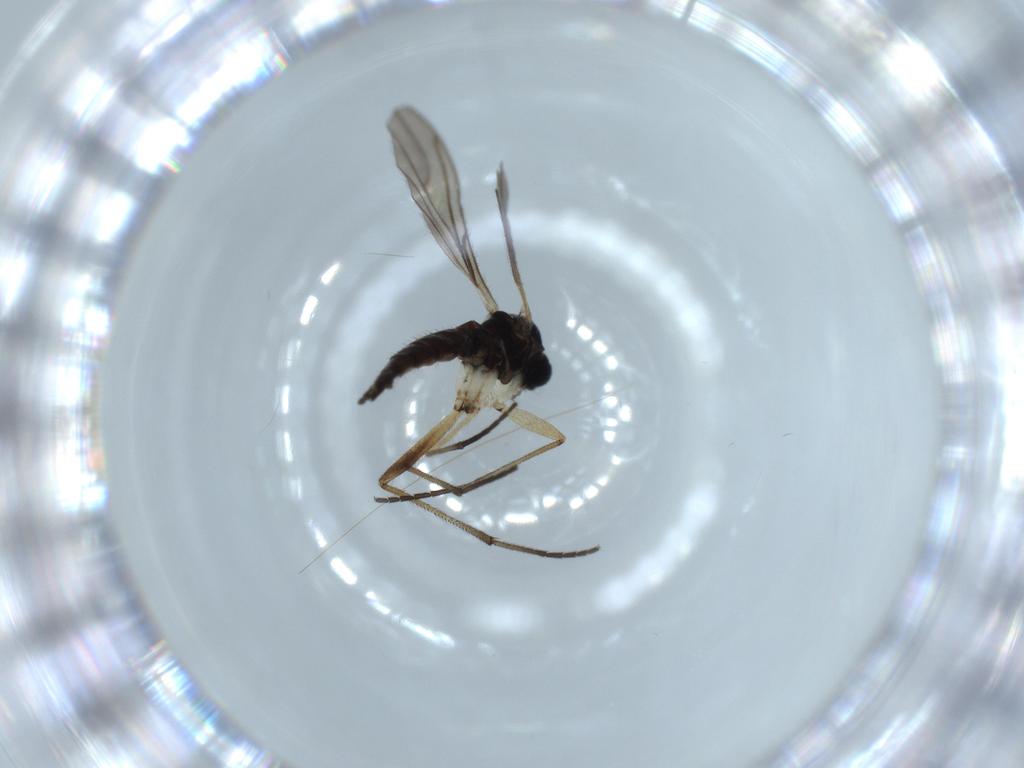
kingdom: Animalia
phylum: Arthropoda
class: Insecta
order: Diptera
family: Sciaridae
